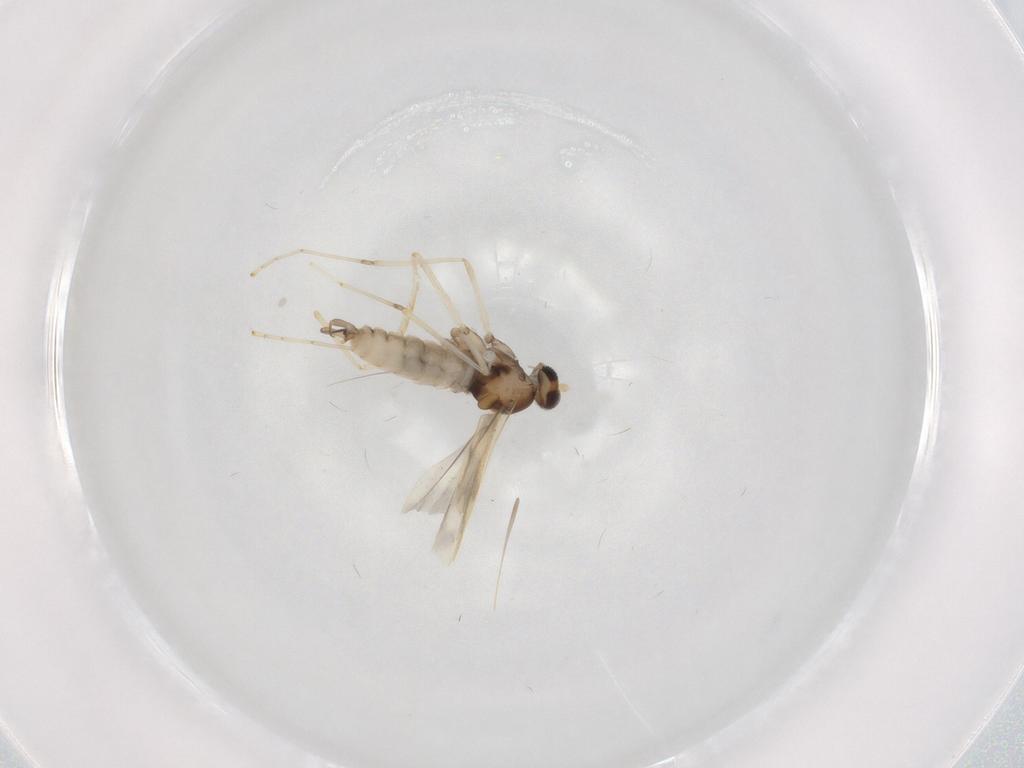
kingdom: Animalia
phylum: Arthropoda
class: Insecta
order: Diptera
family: Cecidomyiidae
